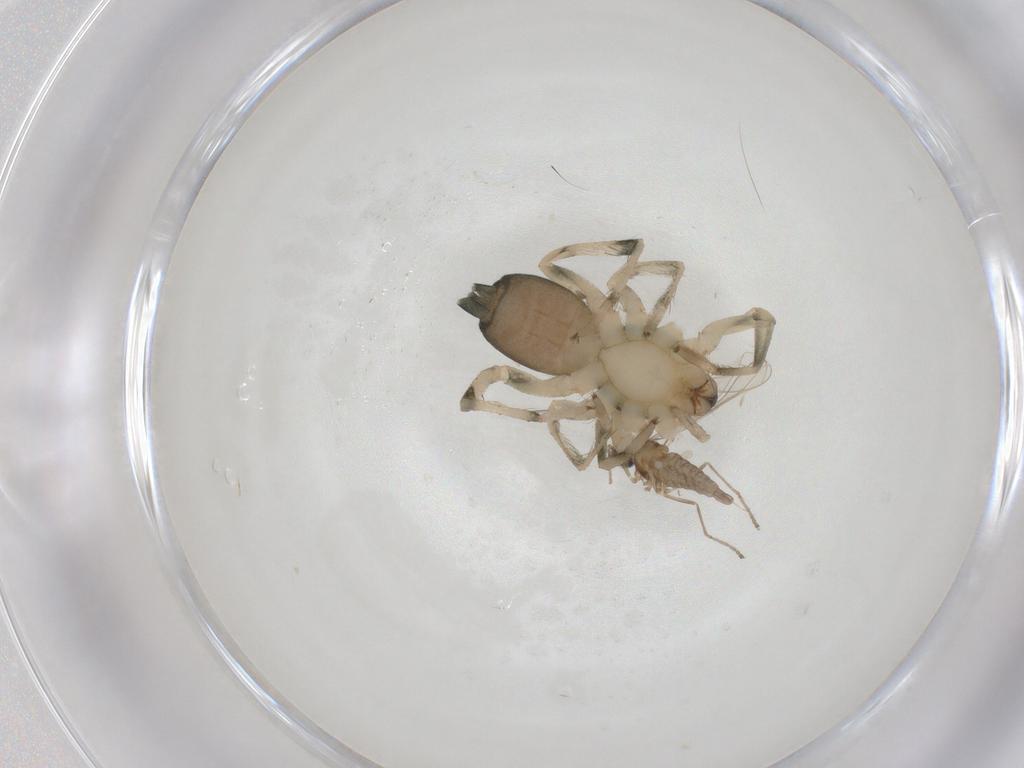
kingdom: Animalia
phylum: Arthropoda
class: Insecta
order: Diptera
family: Cecidomyiidae
